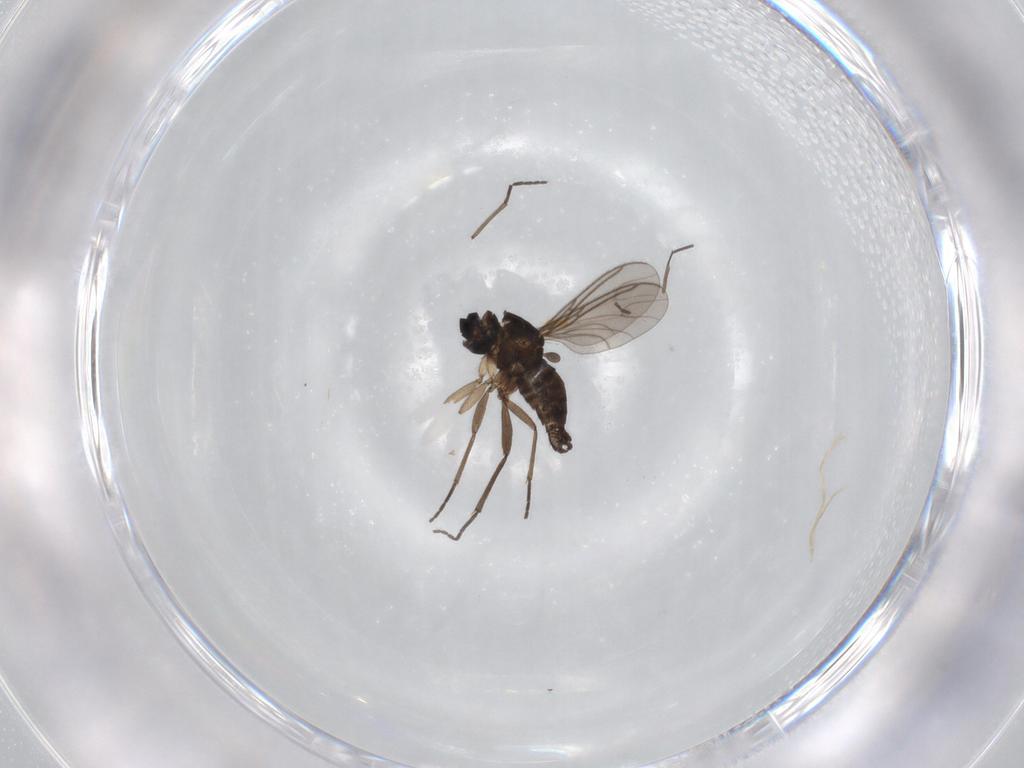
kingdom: Animalia
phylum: Arthropoda
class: Insecta
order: Diptera
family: Sciaridae
